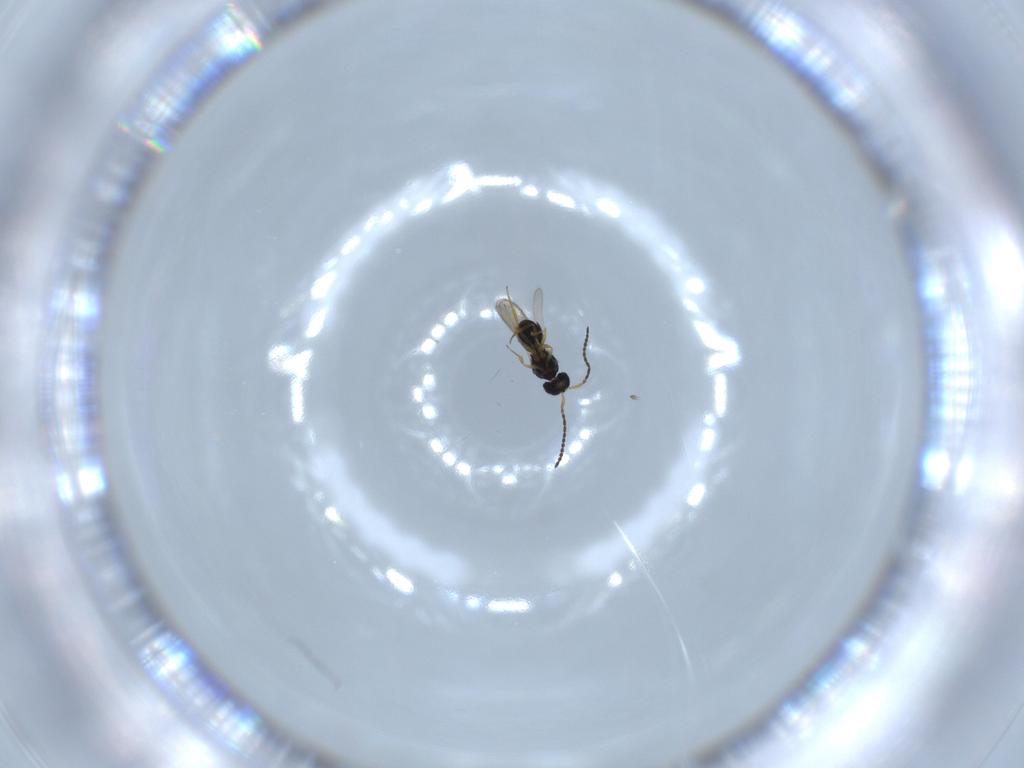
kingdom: Animalia
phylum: Arthropoda
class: Insecta
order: Hymenoptera
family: Scelionidae
